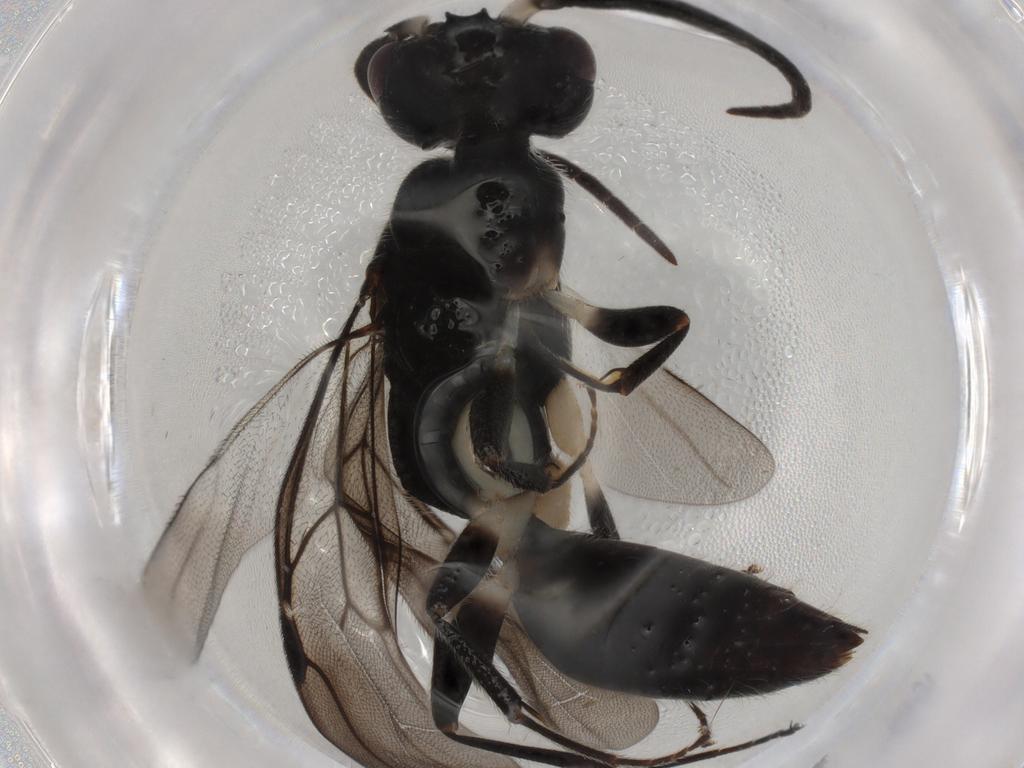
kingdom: Animalia
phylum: Arthropoda
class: Insecta
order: Hymenoptera
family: Bethylidae
